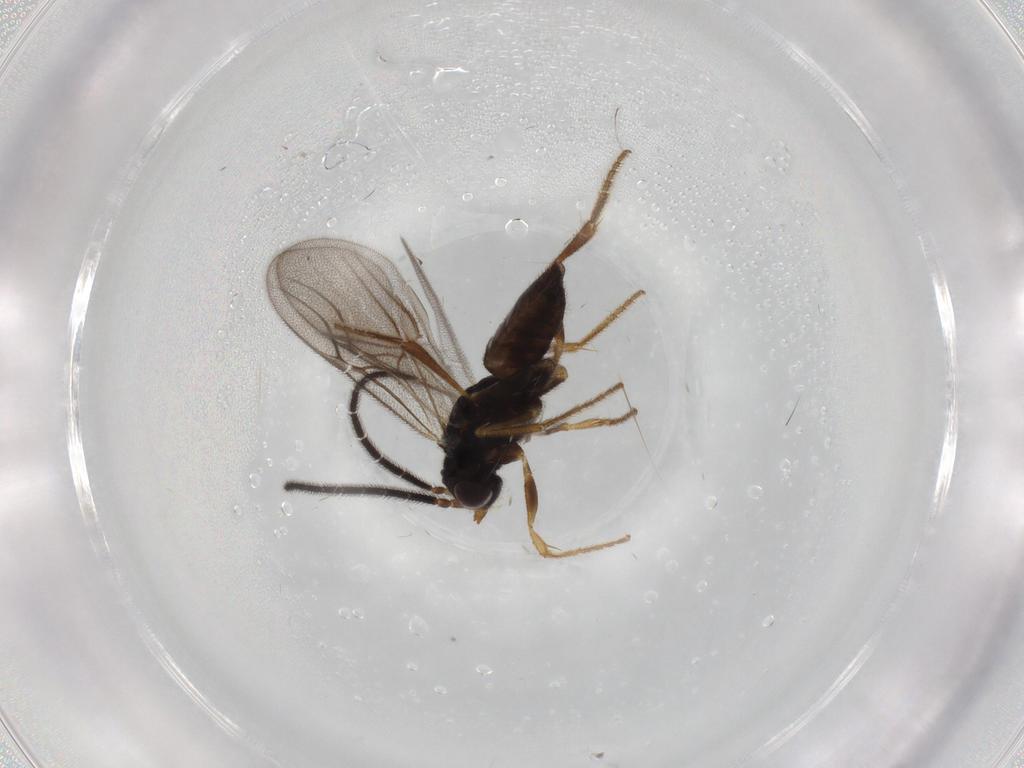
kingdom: Animalia
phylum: Arthropoda
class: Insecta
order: Hymenoptera
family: Dryinidae
